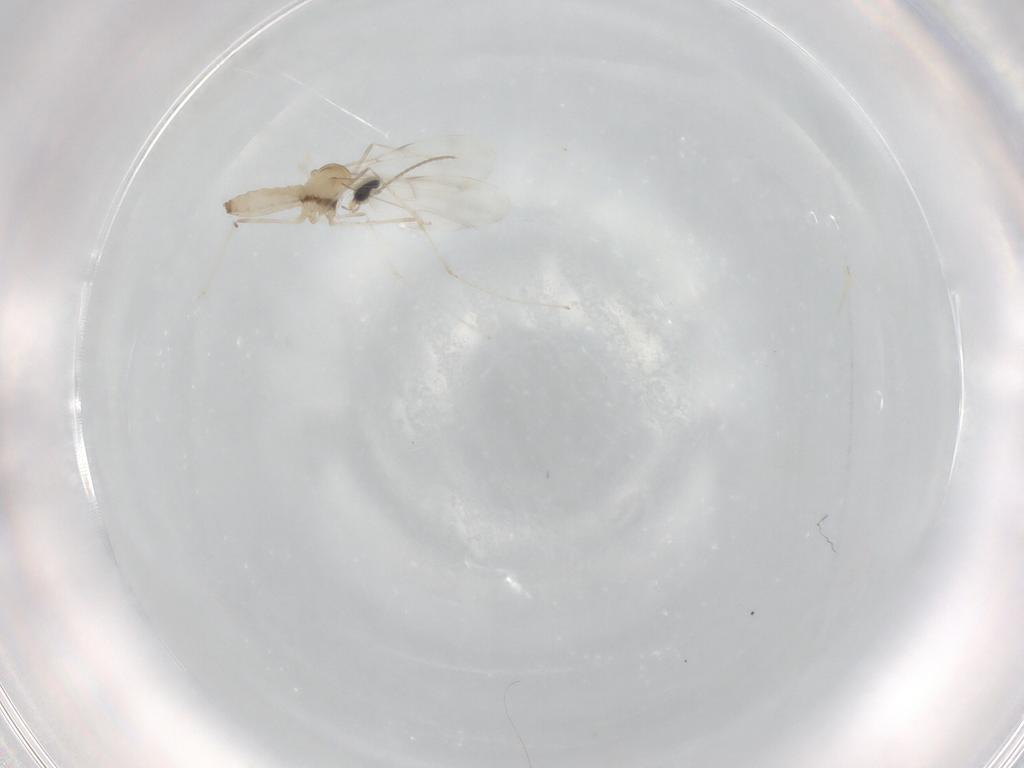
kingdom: Animalia
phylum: Arthropoda
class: Insecta
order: Diptera
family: Cecidomyiidae
